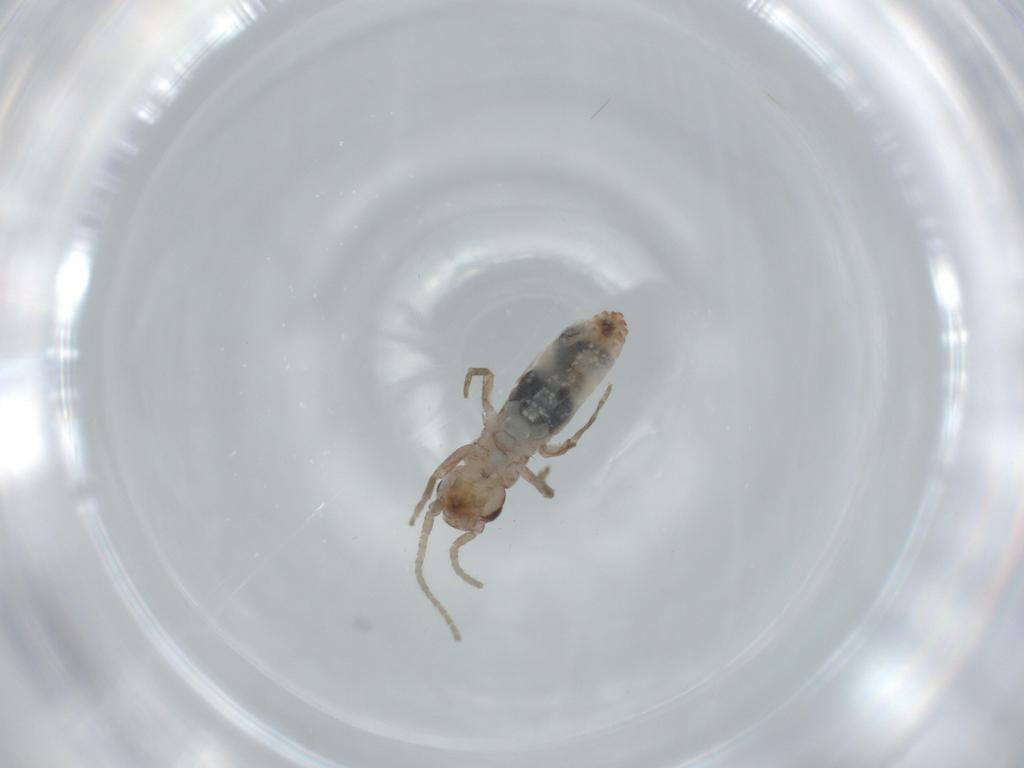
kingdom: Animalia
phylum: Arthropoda
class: Insecta
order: Orthoptera
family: Mogoplistidae
